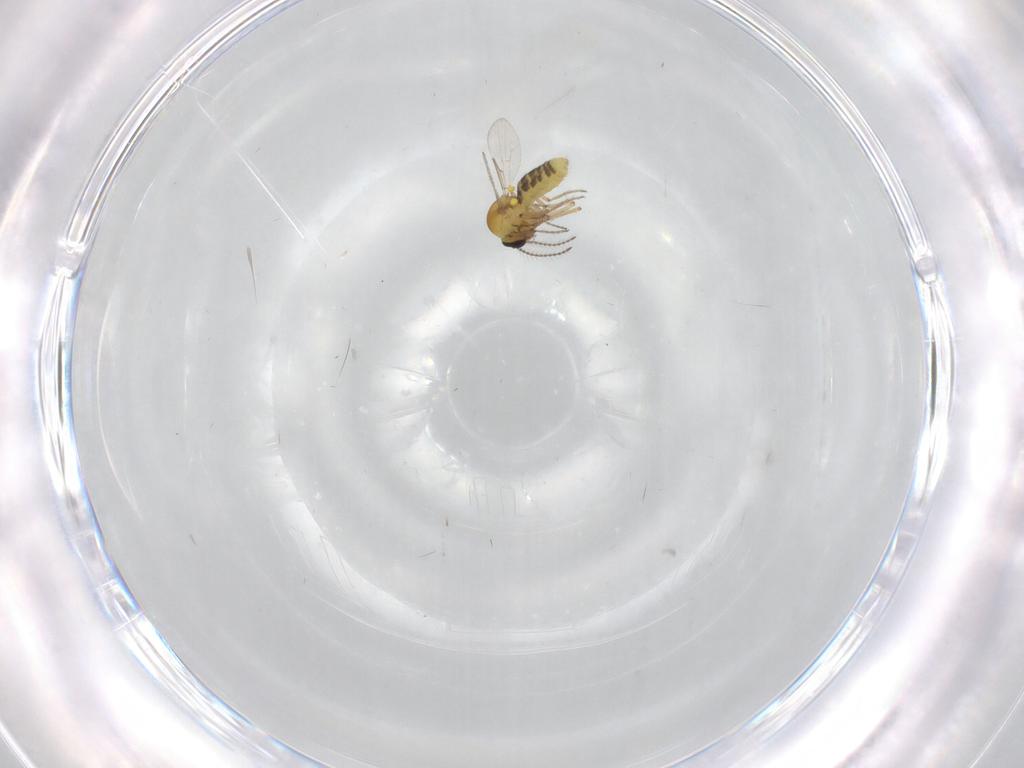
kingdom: Animalia
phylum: Arthropoda
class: Insecta
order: Diptera
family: Ceratopogonidae
